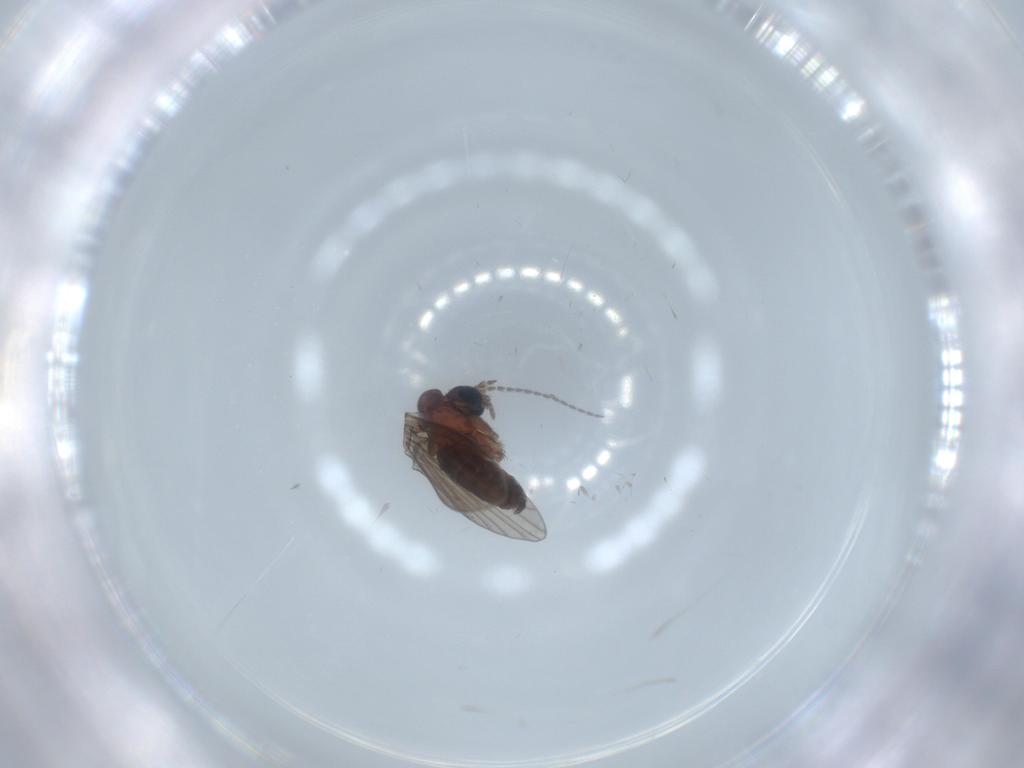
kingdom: Animalia
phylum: Arthropoda
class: Insecta
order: Diptera
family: Psychodidae
